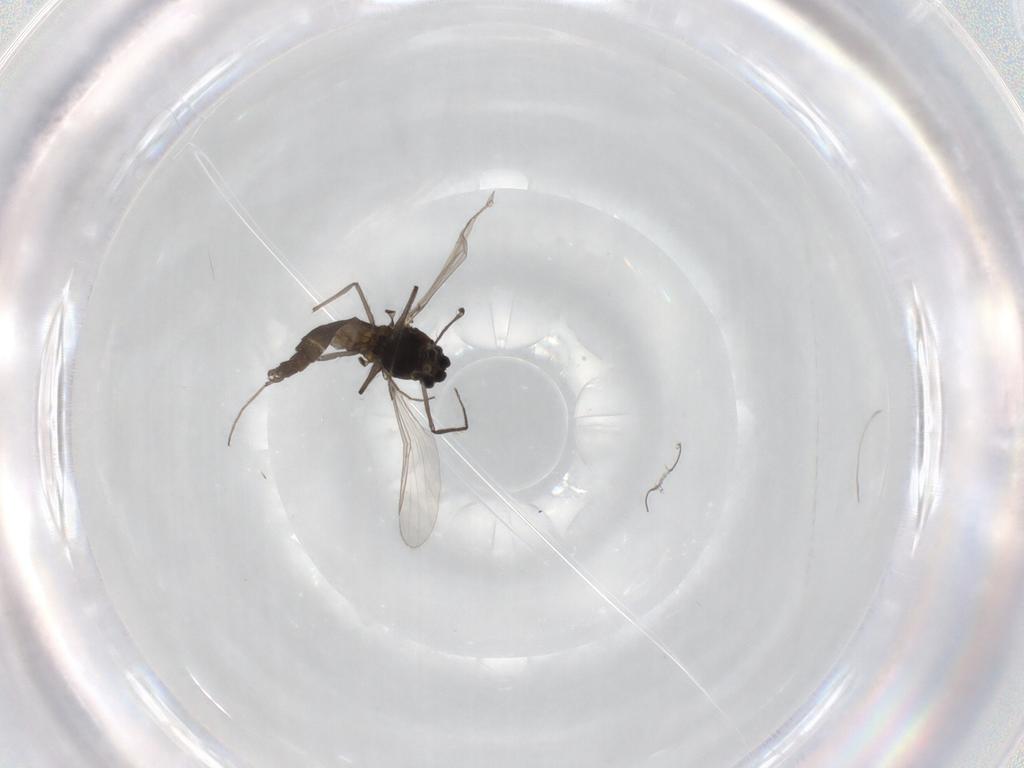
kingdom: Animalia
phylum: Arthropoda
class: Insecta
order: Diptera
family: Chironomidae
